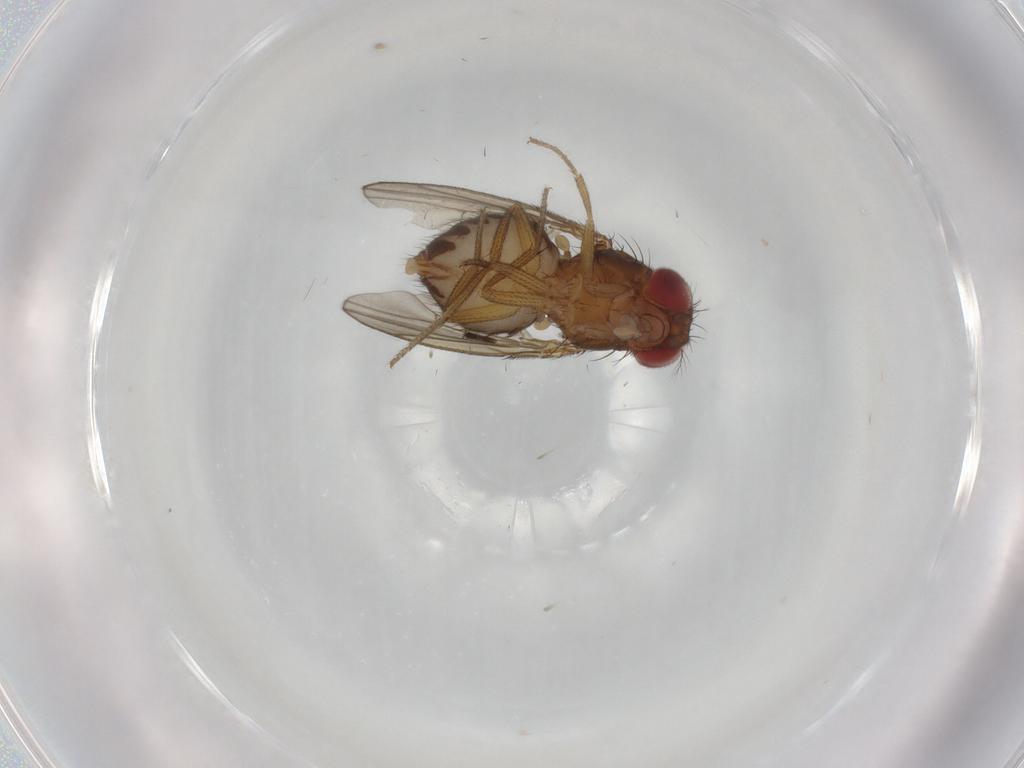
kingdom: Animalia
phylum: Arthropoda
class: Insecta
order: Diptera
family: Drosophilidae
